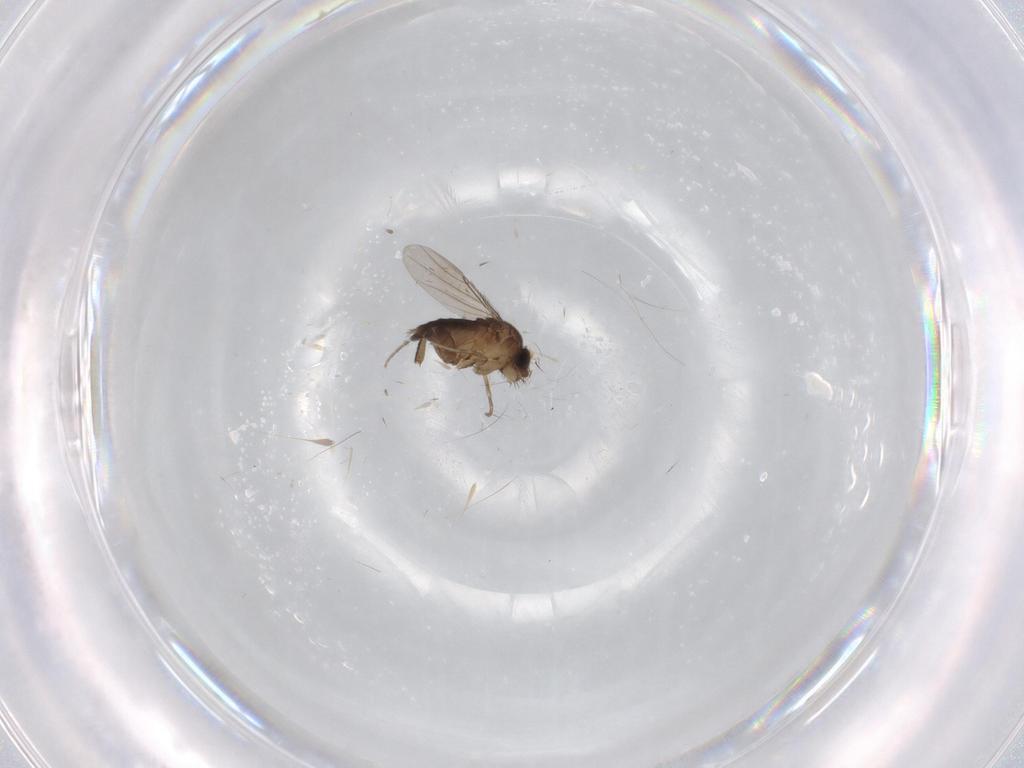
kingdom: Animalia
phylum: Arthropoda
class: Insecta
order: Diptera
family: Phoridae
